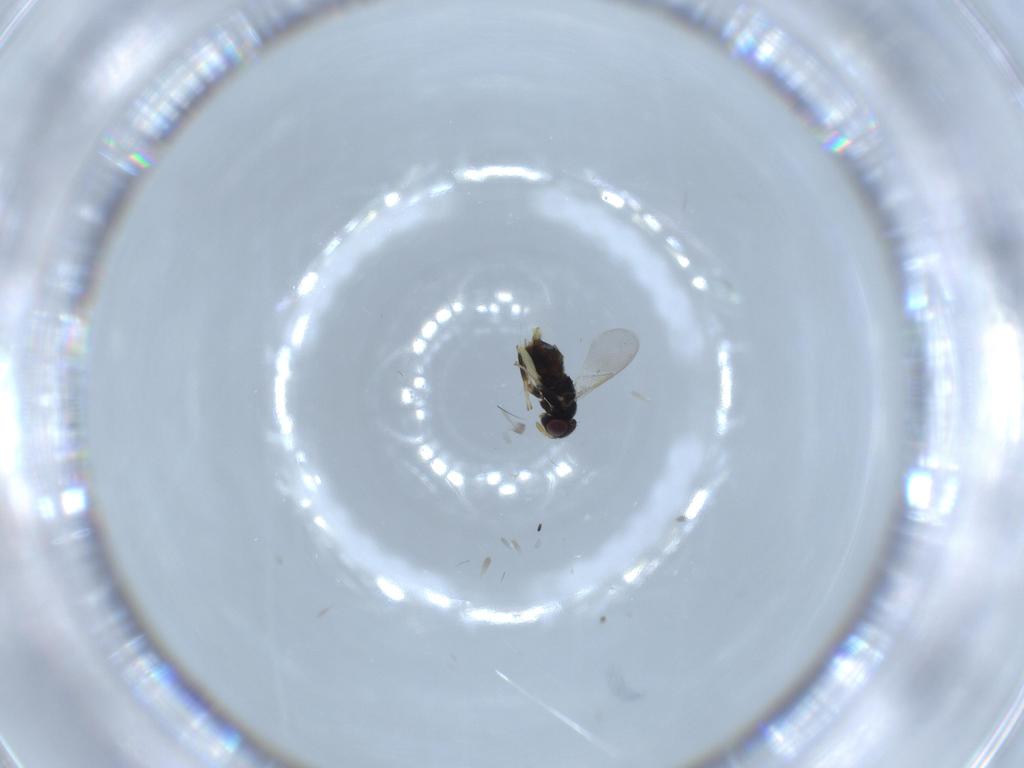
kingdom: Animalia
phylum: Arthropoda
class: Insecta
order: Hymenoptera
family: Aphelinidae
